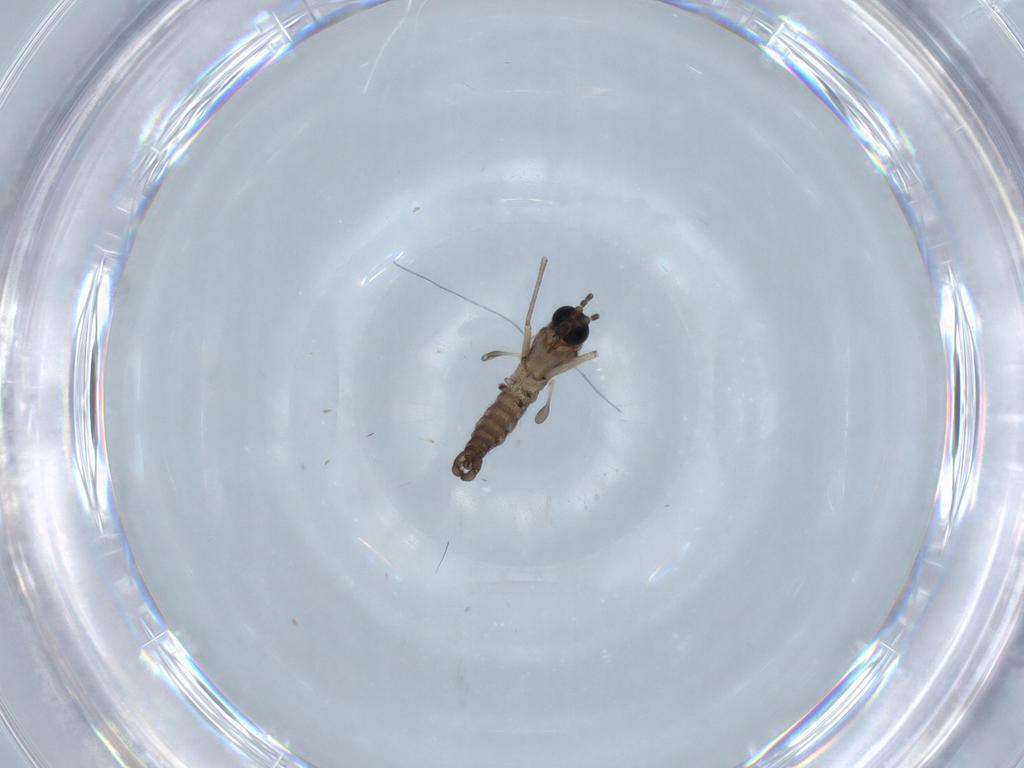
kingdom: Animalia
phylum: Arthropoda
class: Insecta
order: Diptera
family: Sciaridae
